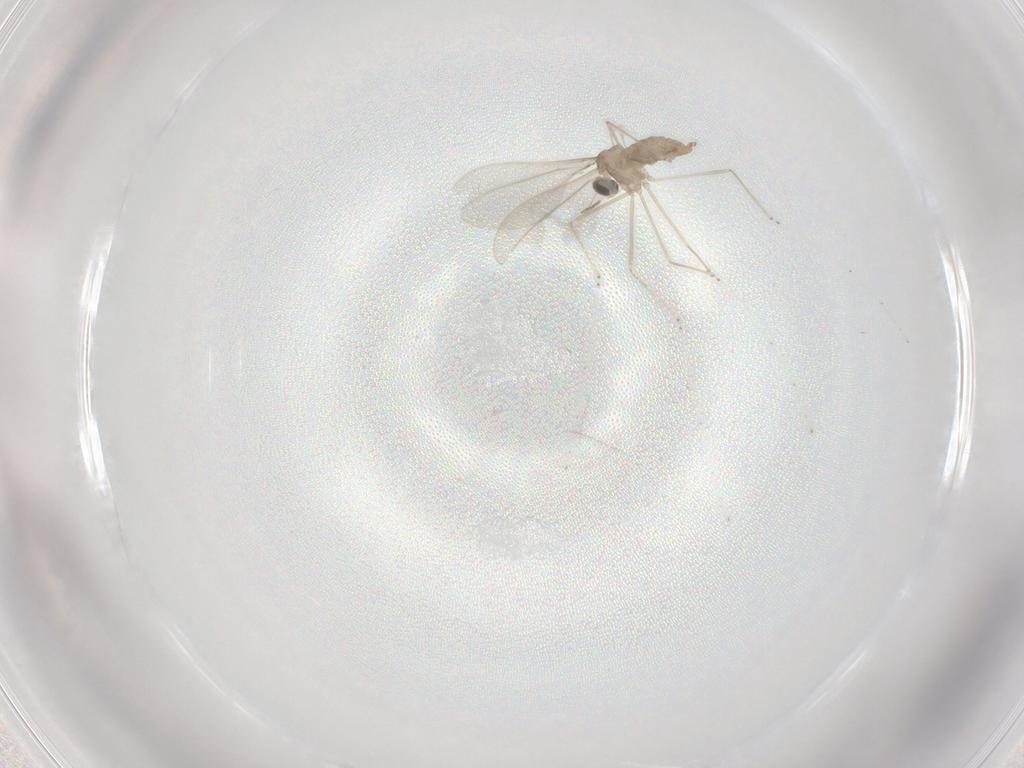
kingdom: Animalia
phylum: Arthropoda
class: Insecta
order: Diptera
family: Cecidomyiidae
